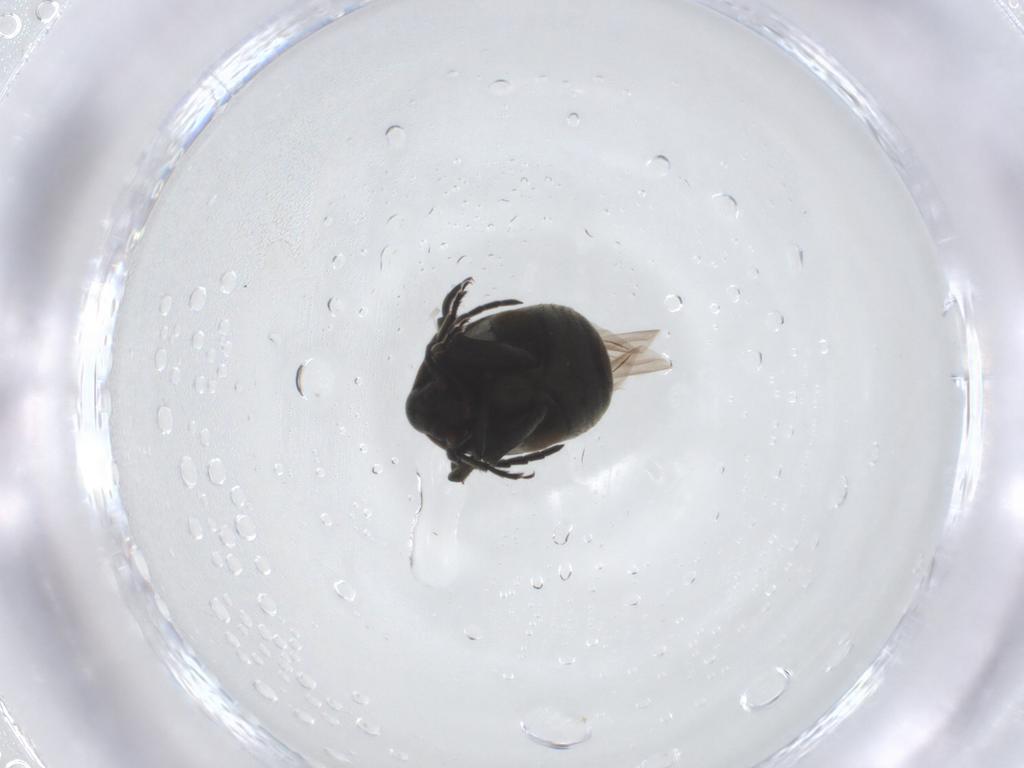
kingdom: Animalia
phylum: Arthropoda
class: Insecta
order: Coleoptera
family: Chrysomelidae
